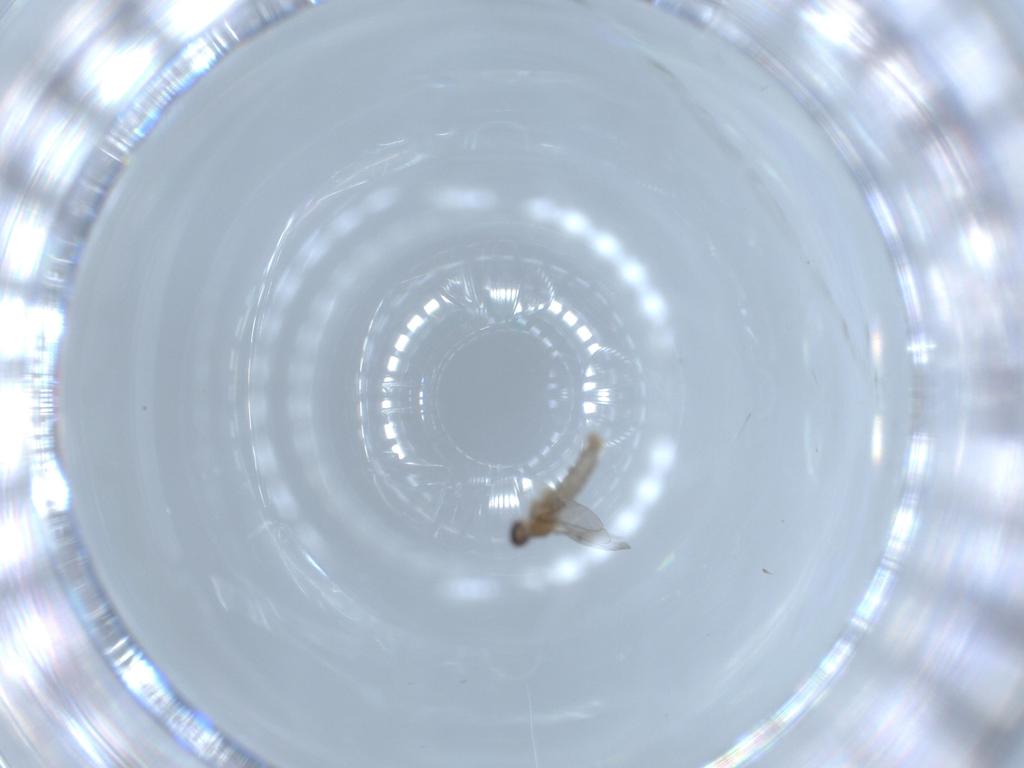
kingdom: Animalia
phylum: Arthropoda
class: Insecta
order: Diptera
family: Cecidomyiidae
